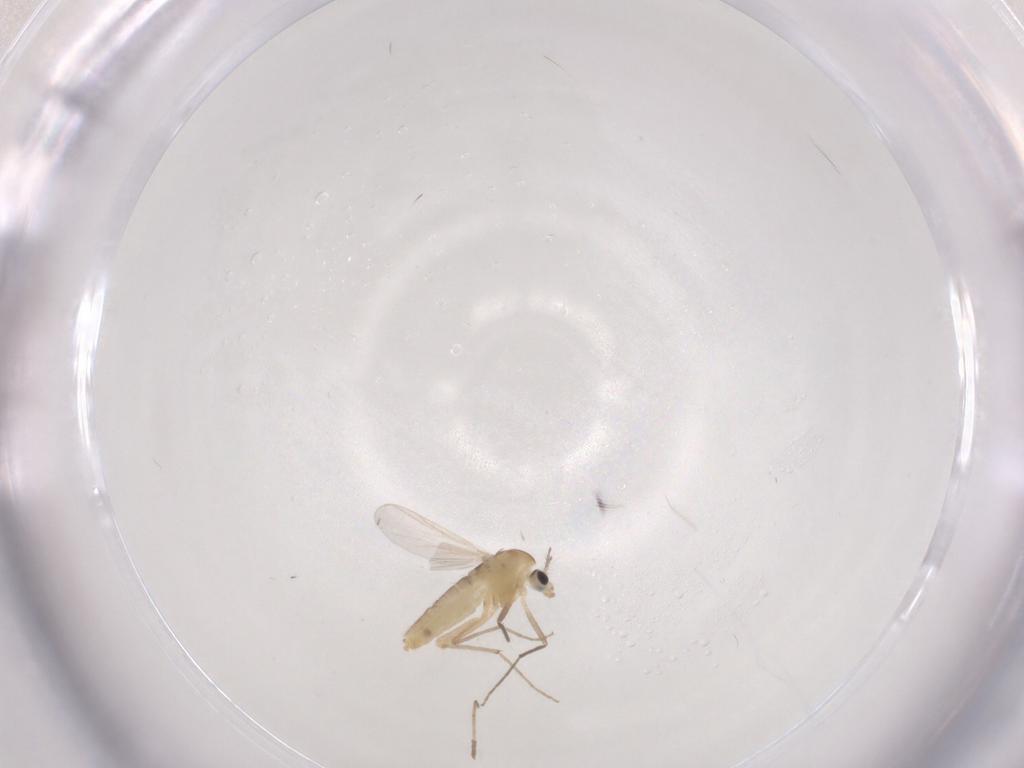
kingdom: Animalia
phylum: Arthropoda
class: Insecta
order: Diptera
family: Chironomidae
